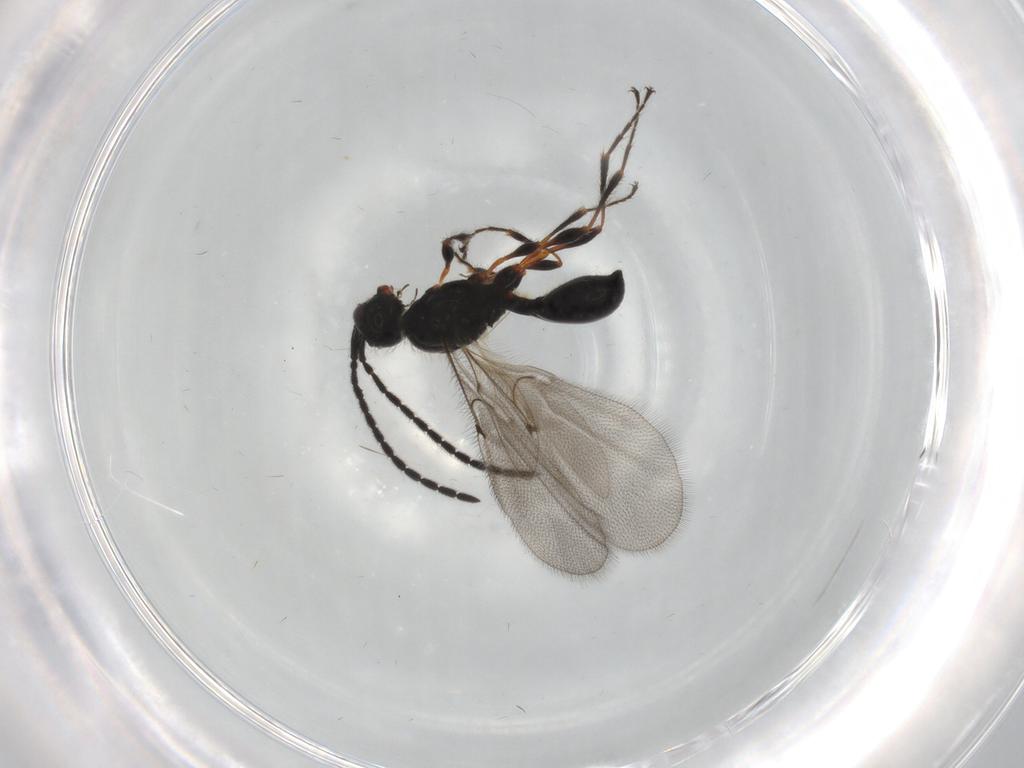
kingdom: Animalia
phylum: Arthropoda
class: Insecta
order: Hymenoptera
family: Diapriidae
